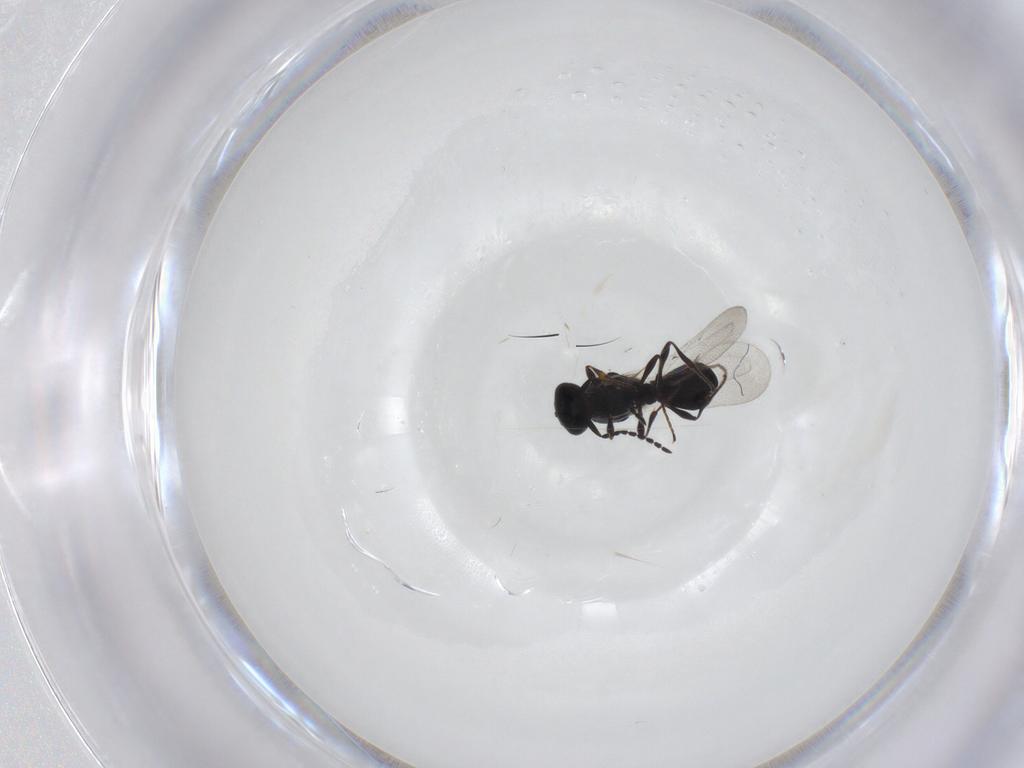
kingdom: Animalia
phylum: Arthropoda
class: Insecta
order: Hymenoptera
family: Platygastridae
